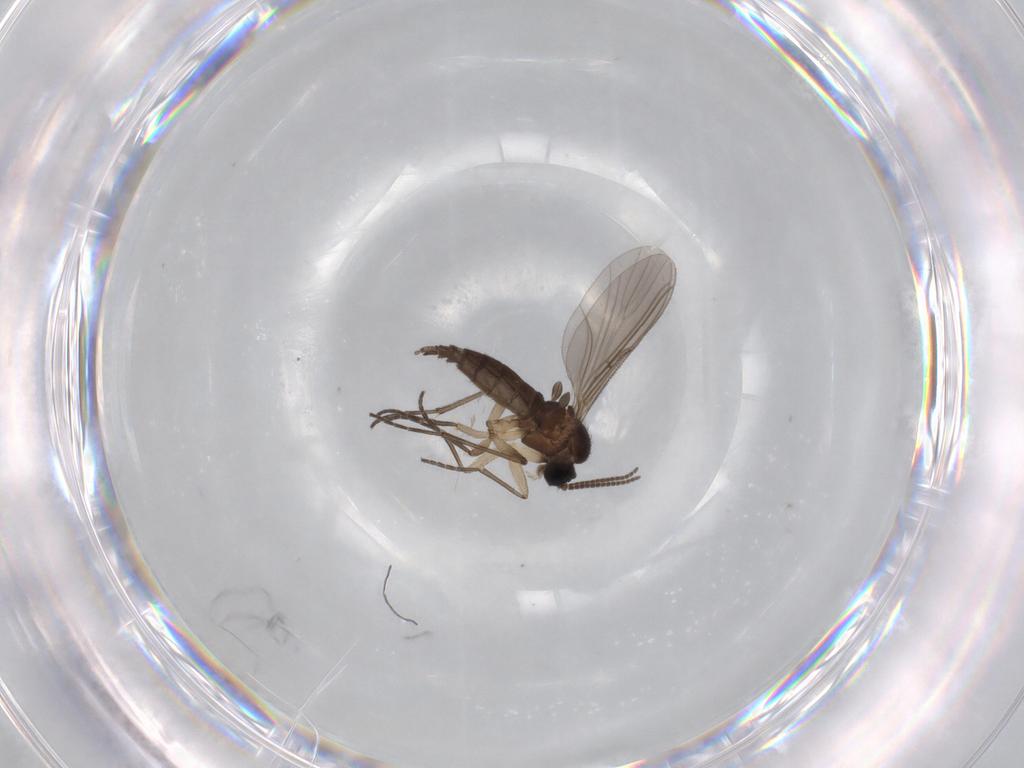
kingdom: Animalia
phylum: Arthropoda
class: Insecta
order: Diptera
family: Sciaridae
